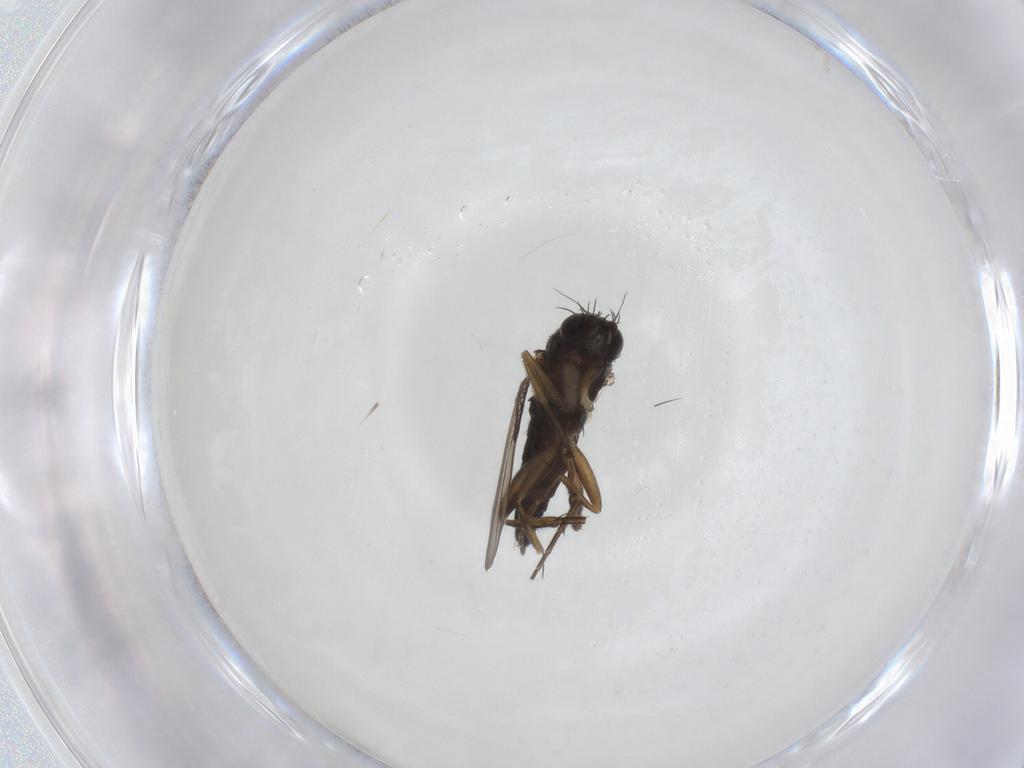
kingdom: Animalia
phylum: Arthropoda
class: Insecta
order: Diptera
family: Phoridae
